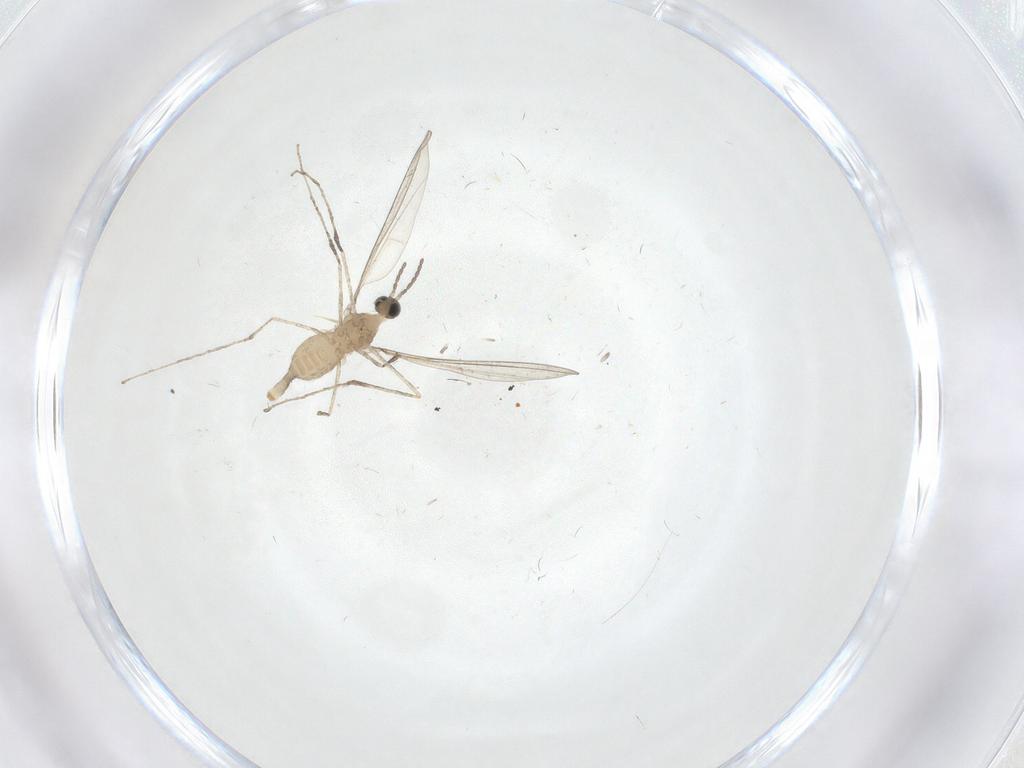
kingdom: Animalia
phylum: Arthropoda
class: Insecta
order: Diptera
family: Cecidomyiidae
